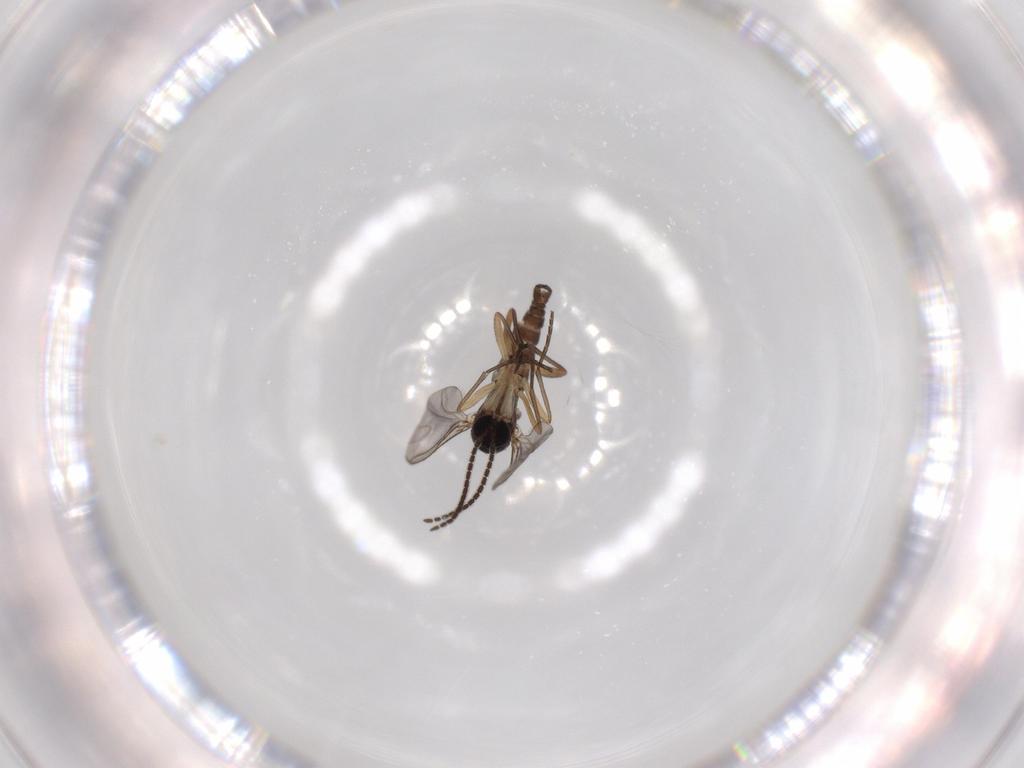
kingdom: Animalia
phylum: Arthropoda
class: Insecta
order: Diptera
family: Sciaridae
